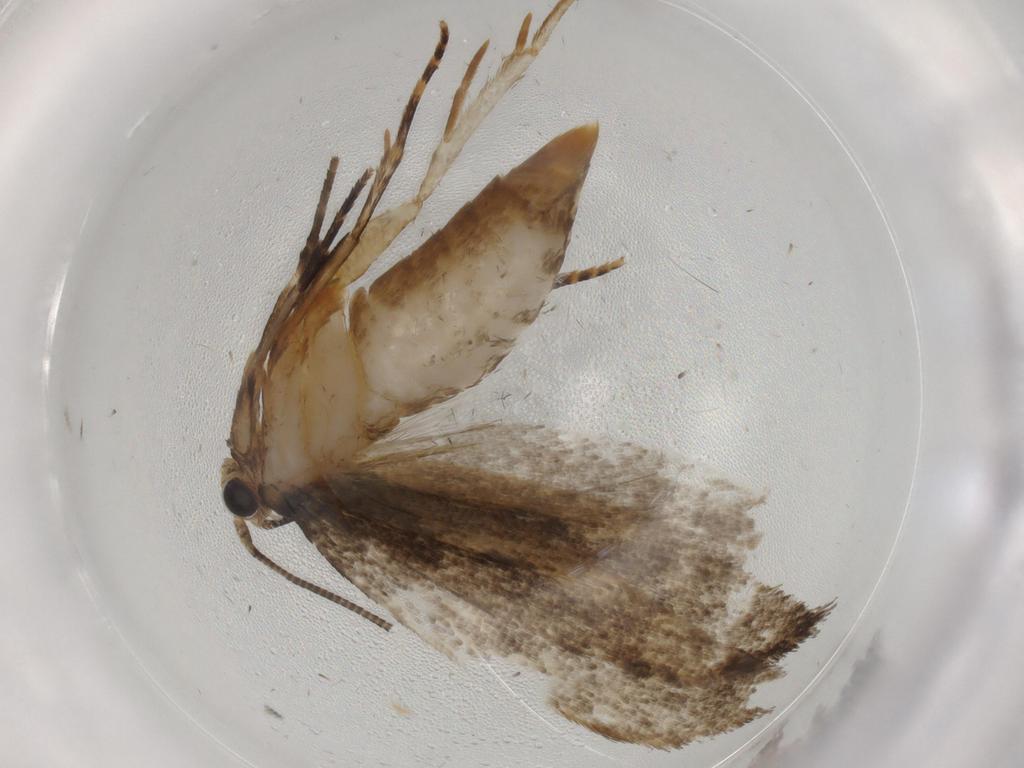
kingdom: Animalia
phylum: Arthropoda
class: Insecta
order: Lepidoptera
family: Tineidae
